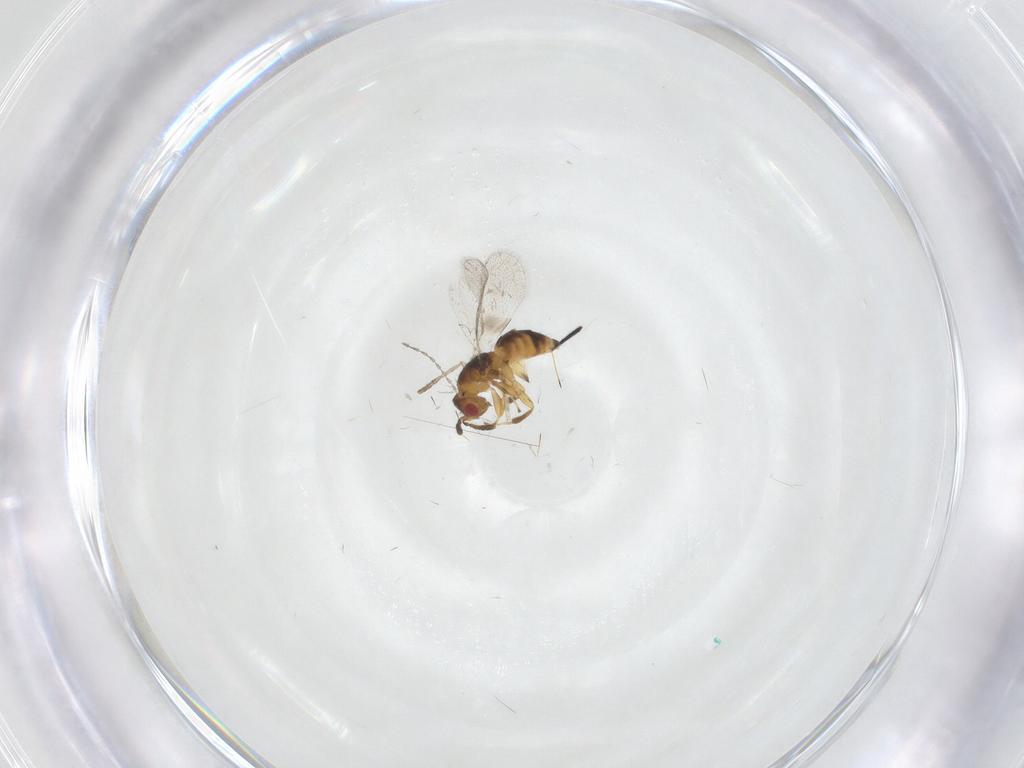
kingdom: Animalia
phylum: Arthropoda
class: Insecta
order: Hymenoptera
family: Torymidae
